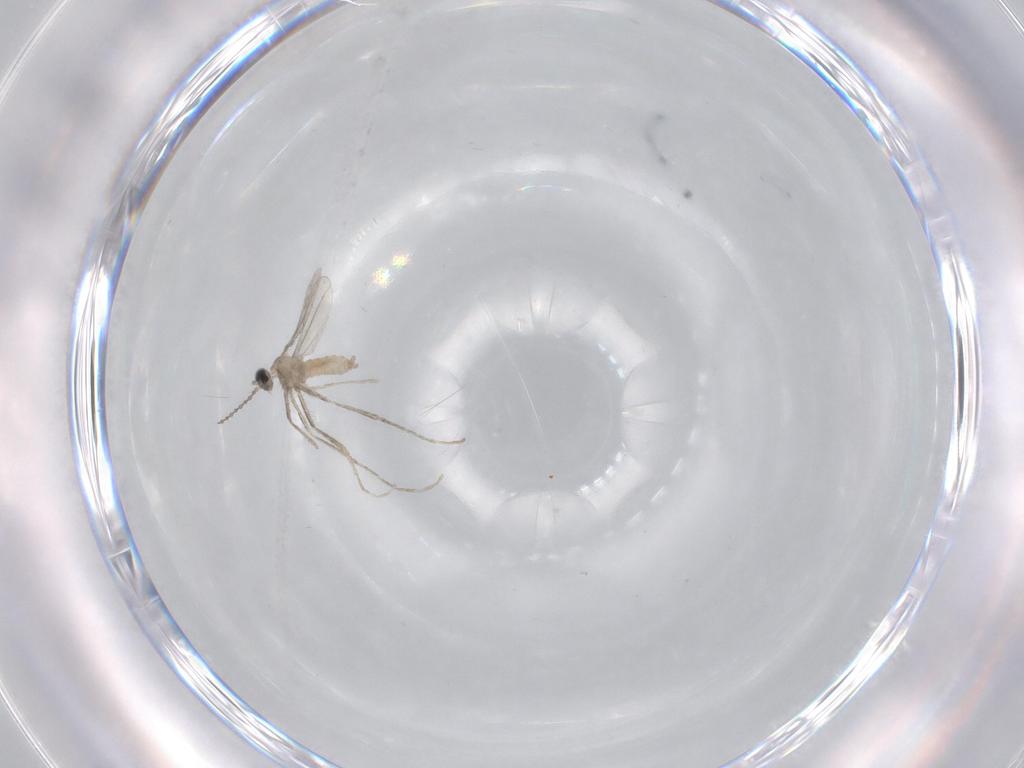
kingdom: Animalia
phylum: Arthropoda
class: Insecta
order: Diptera
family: Cecidomyiidae
